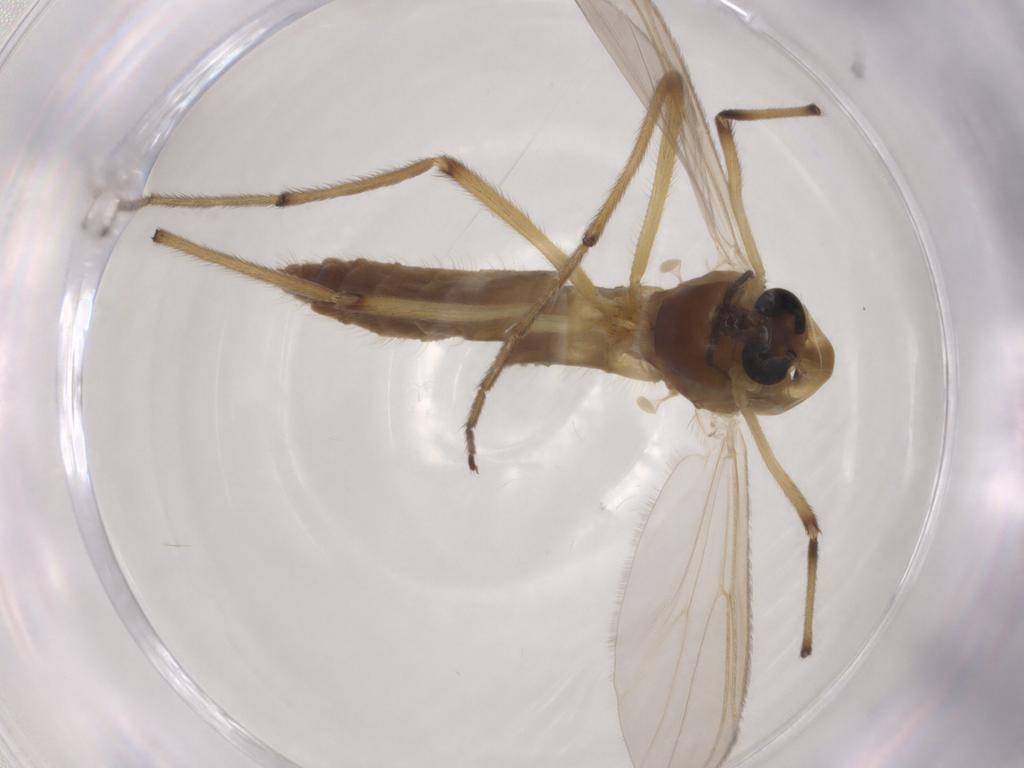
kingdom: Animalia
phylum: Arthropoda
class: Insecta
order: Diptera
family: Chironomidae
